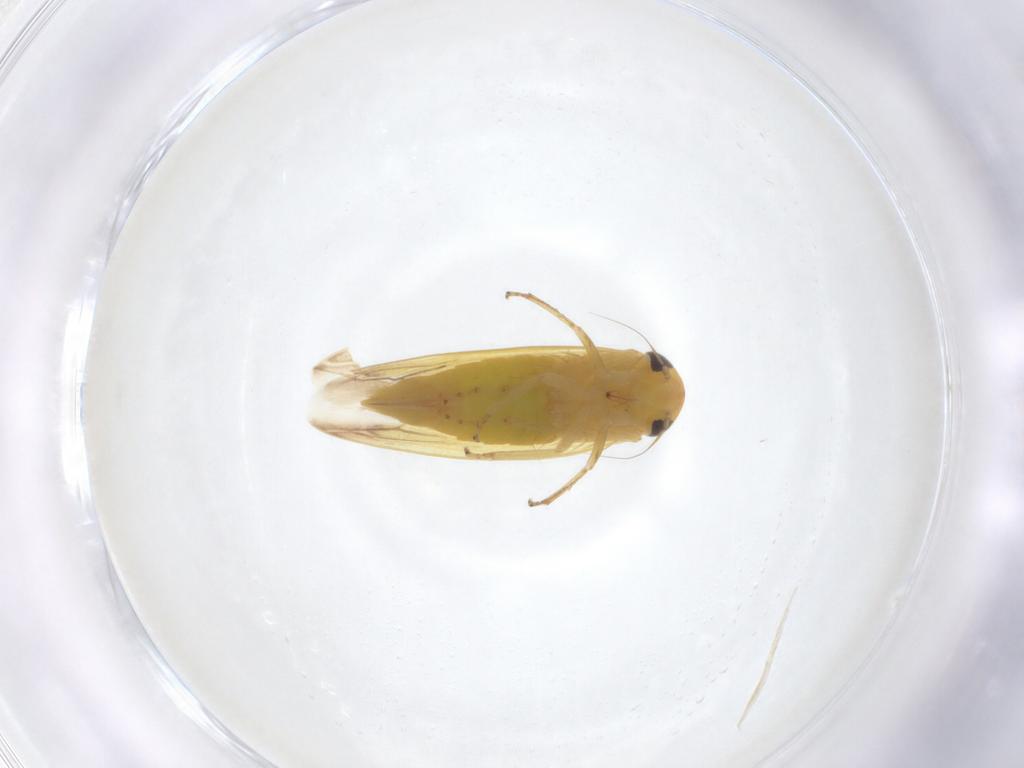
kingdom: Animalia
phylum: Arthropoda
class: Insecta
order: Hemiptera
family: Cicadellidae
